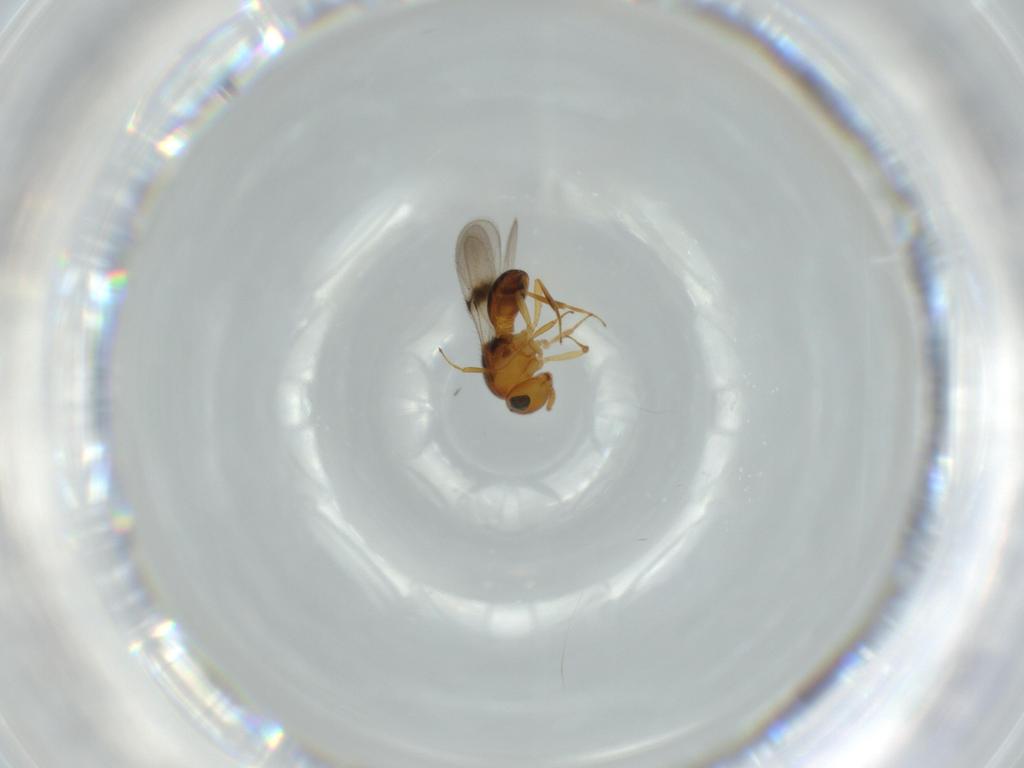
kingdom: Animalia
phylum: Arthropoda
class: Insecta
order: Hymenoptera
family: Scelionidae
